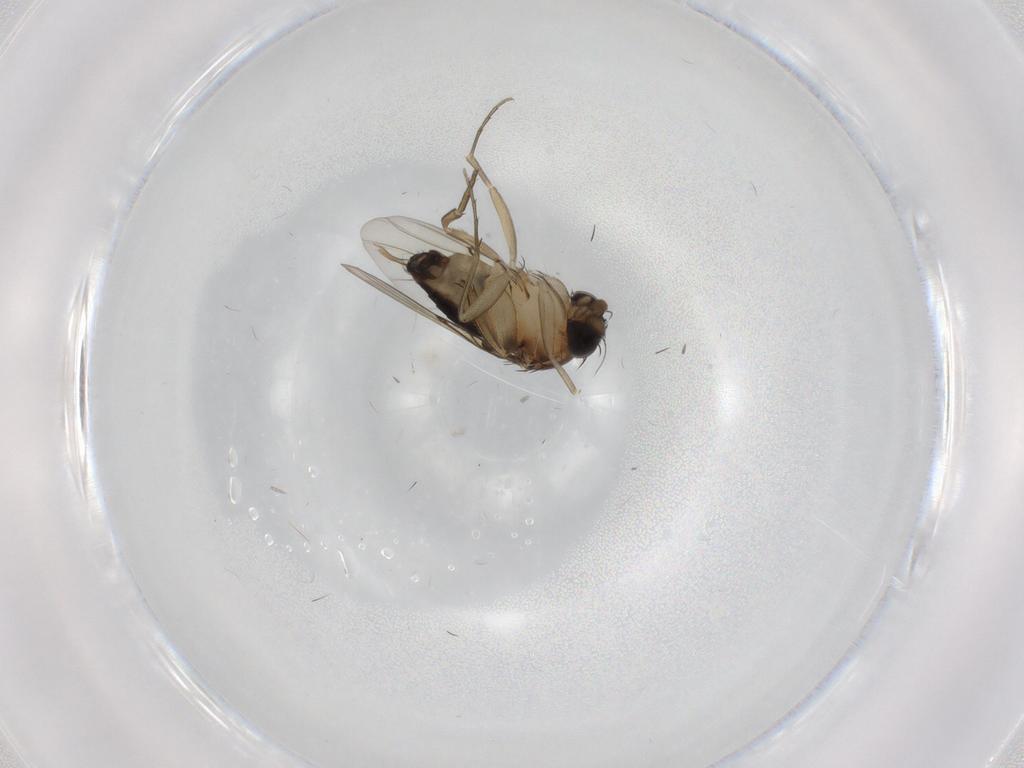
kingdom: Animalia
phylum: Arthropoda
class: Insecta
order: Diptera
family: Phoridae
